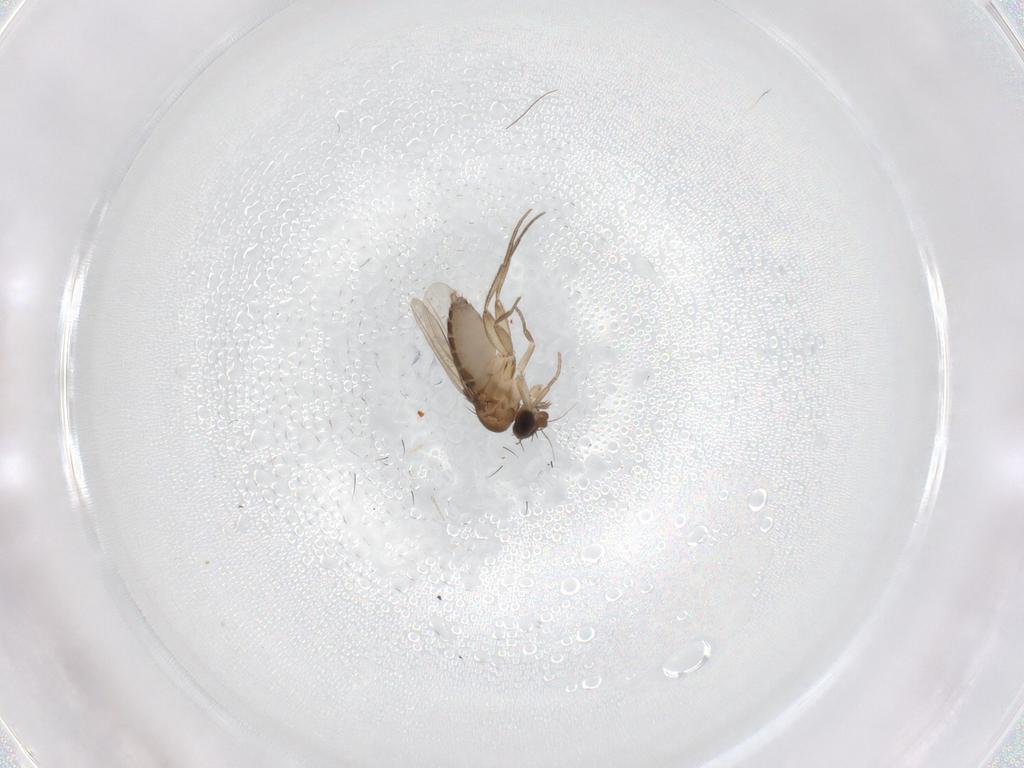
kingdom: Animalia
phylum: Arthropoda
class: Insecta
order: Diptera
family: Phoridae
